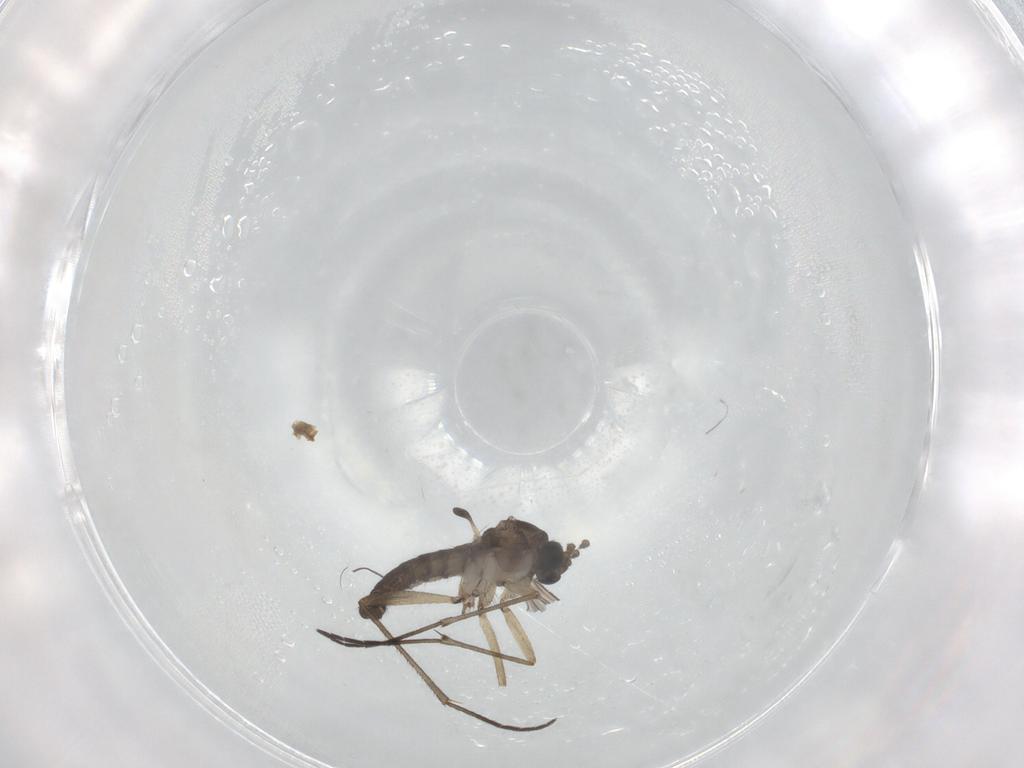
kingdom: Animalia
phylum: Arthropoda
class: Insecta
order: Diptera
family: Sciaridae
